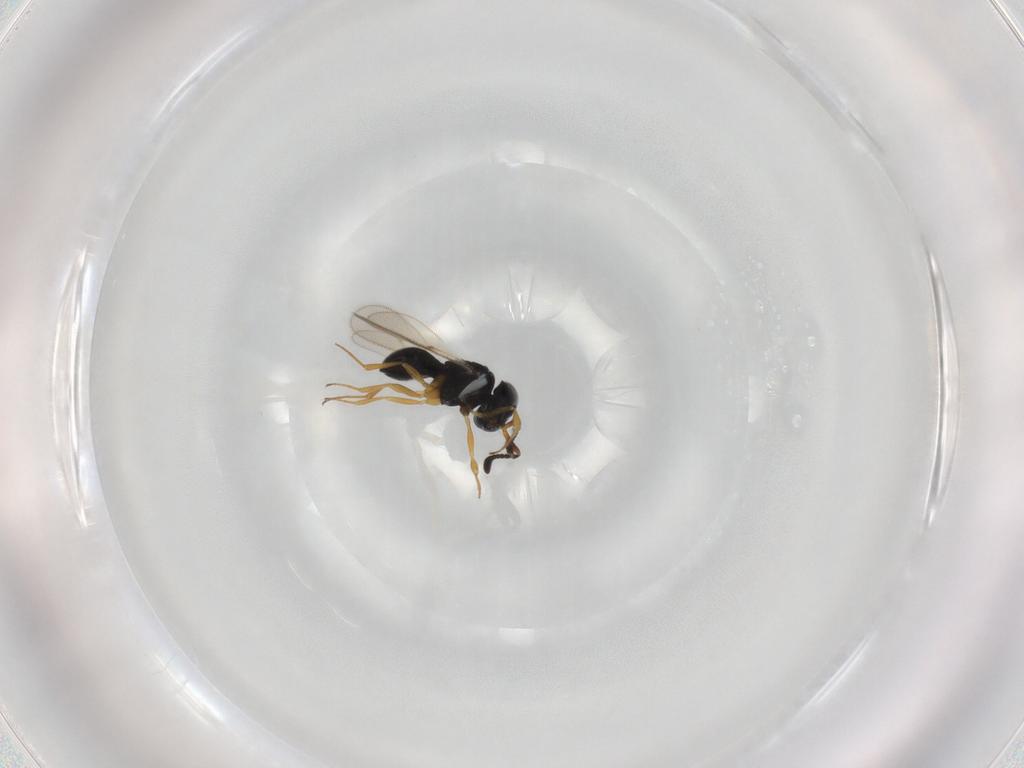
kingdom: Animalia
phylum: Arthropoda
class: Insecta
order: Hymenoptera
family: Scelionidae
